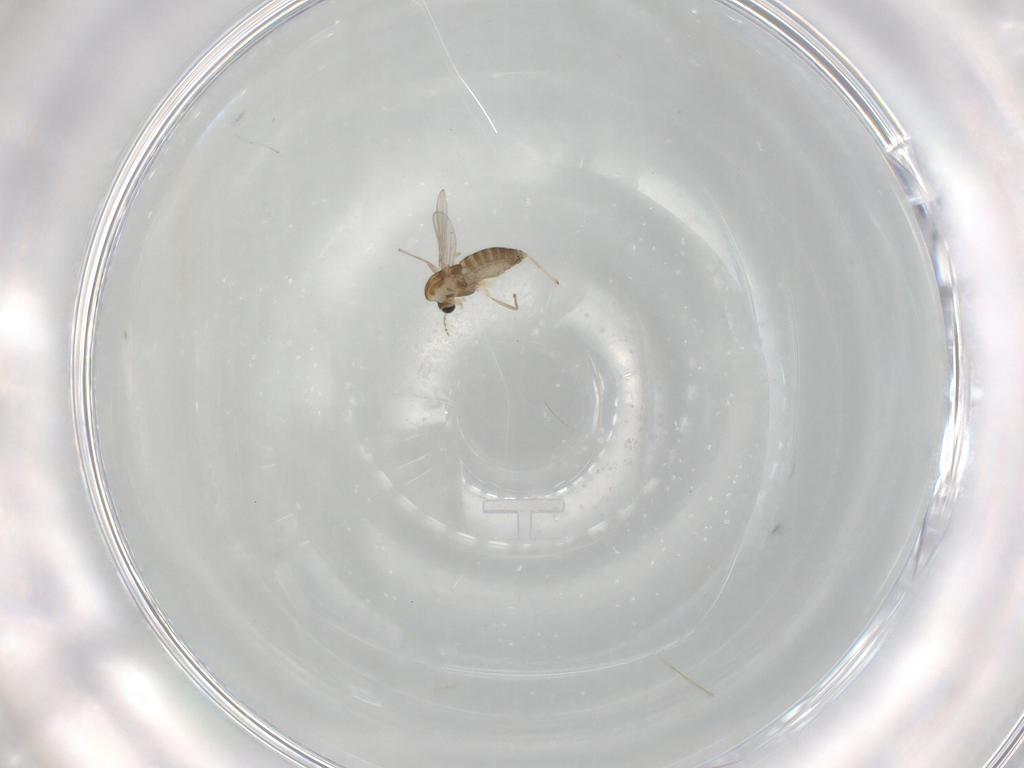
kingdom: Animalia
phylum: Arthropoda
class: Insecta
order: Diptera
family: Chironomidae
